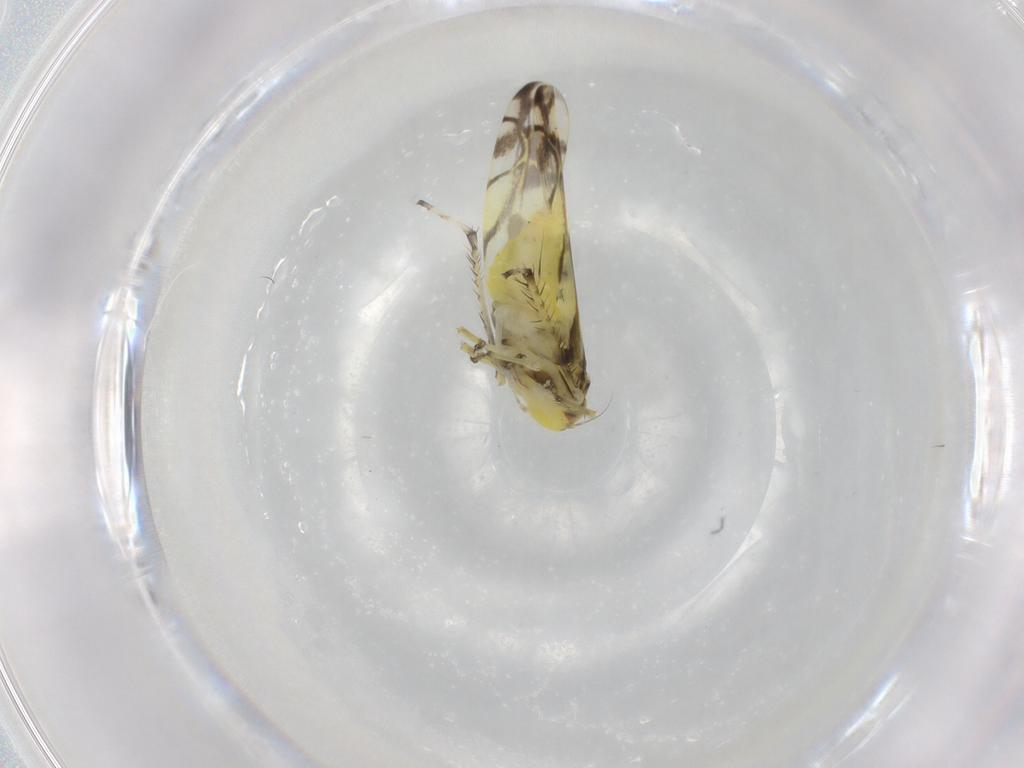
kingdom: Animalia
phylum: Arthropoda
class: Insecta
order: Hemiptera
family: Cicadellidae
